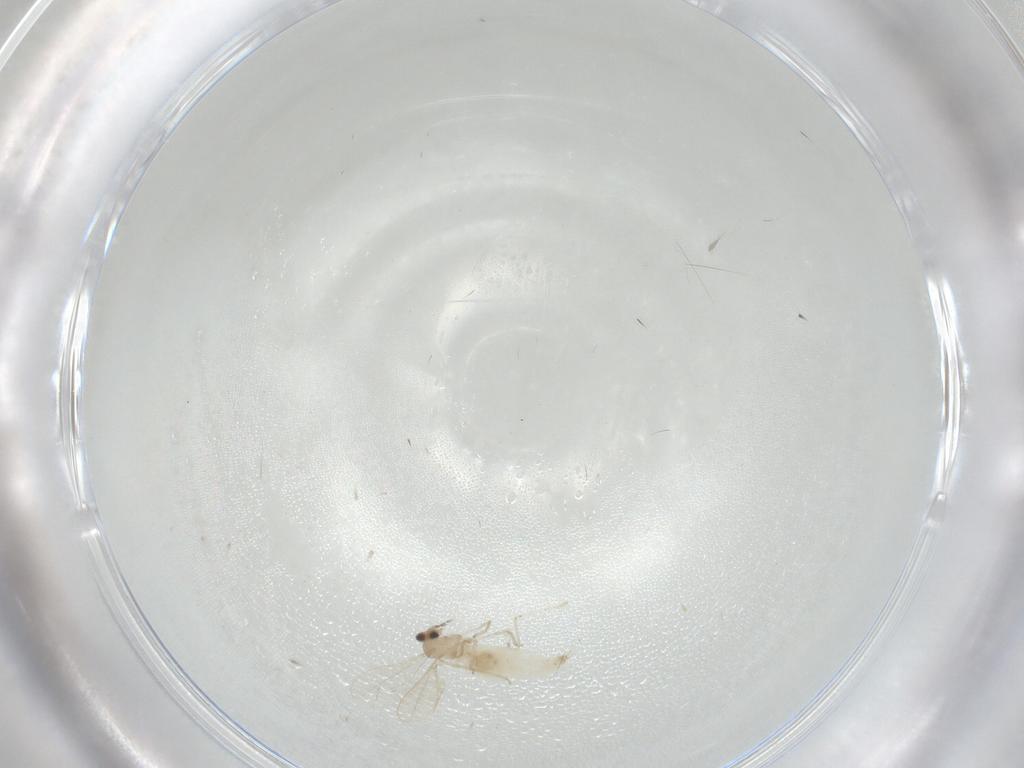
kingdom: Animalia
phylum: Arthropoda
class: Insecta
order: Diptera
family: Cecidomyiidae
